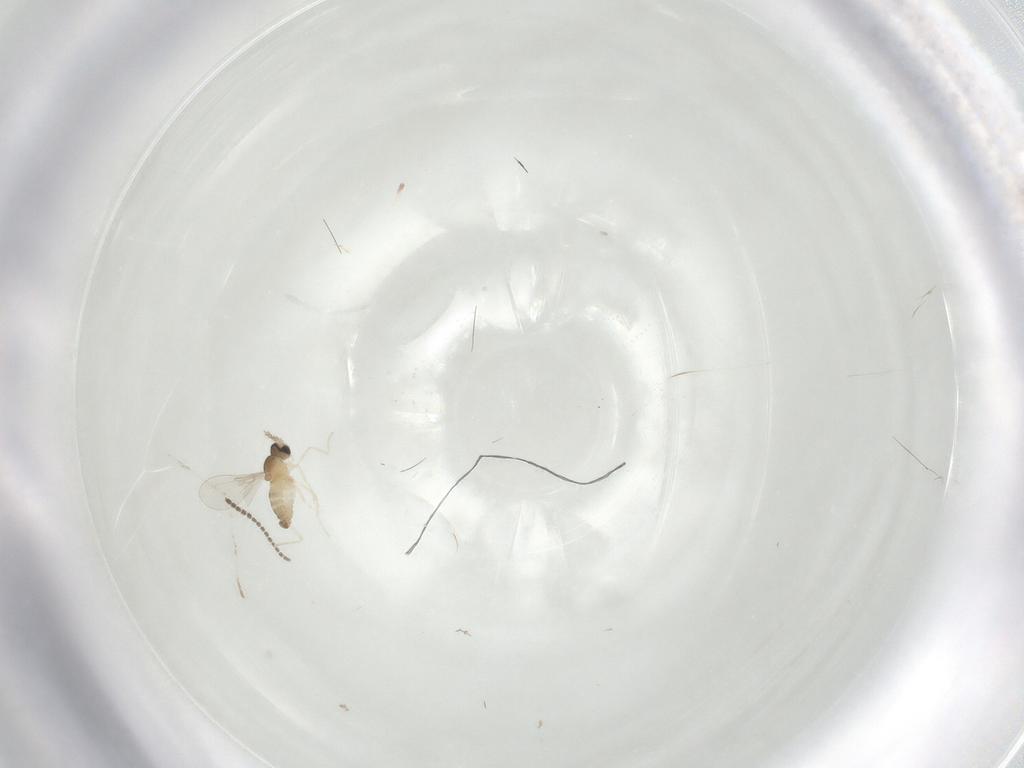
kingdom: Animalia
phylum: Arthropoda
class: Insecta
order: Diptera
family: Cecidomyiidae
